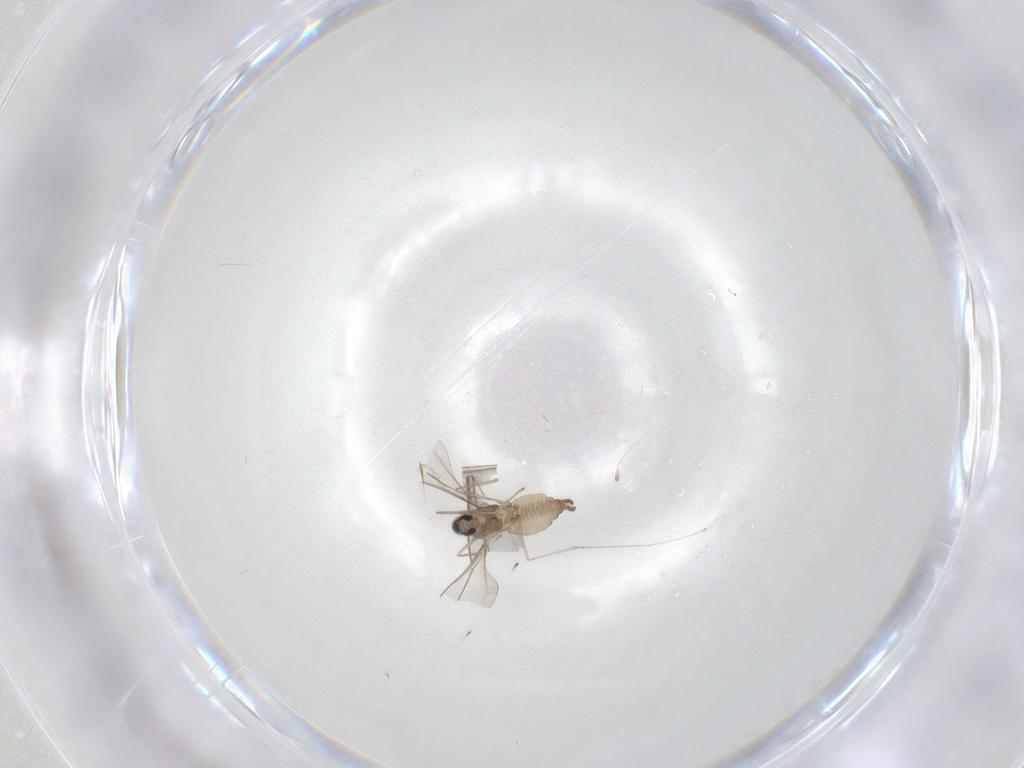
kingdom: Animalia
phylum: Arthropoda
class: Insecta
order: Diptera
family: Cecidomyiidae
